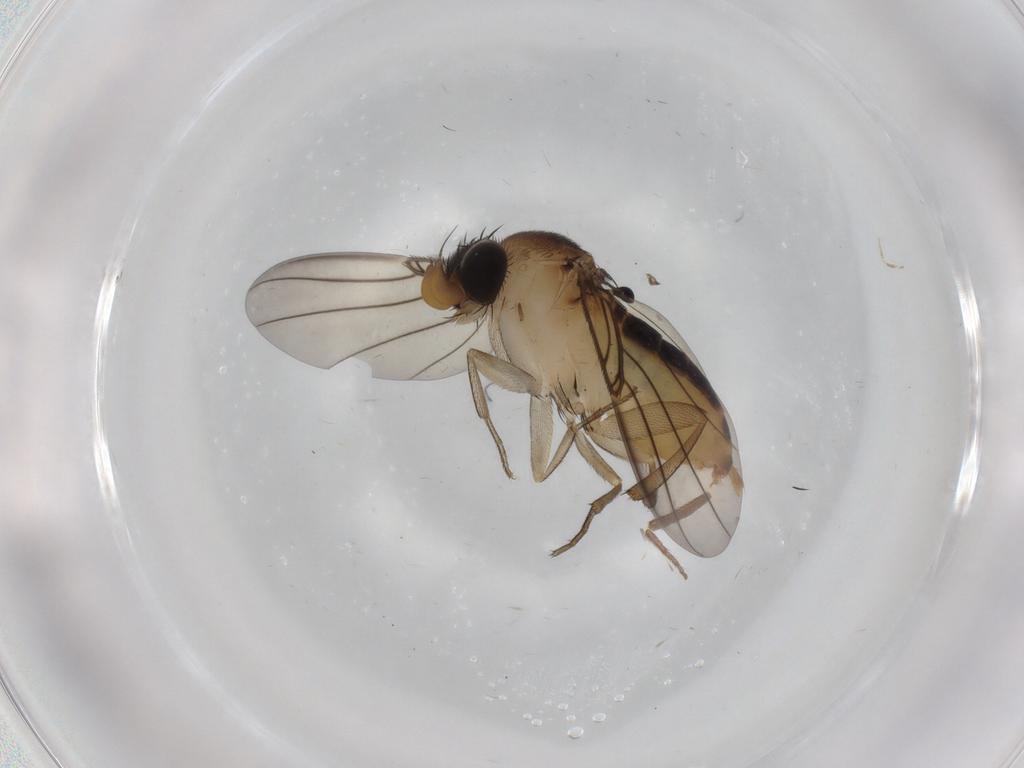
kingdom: Animalia
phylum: Arthropoda
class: Insecta
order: Diptera
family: Phoridae
